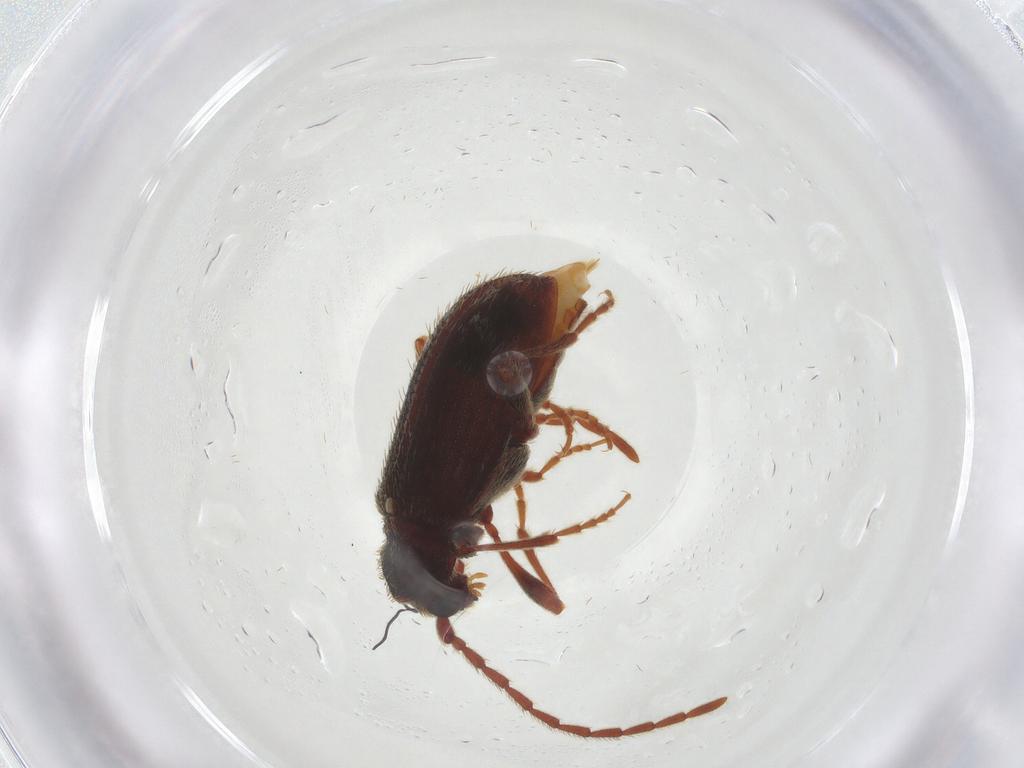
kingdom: Animalia
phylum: Arthropoda
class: Insecta
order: Coleoptera
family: Ptinidae
